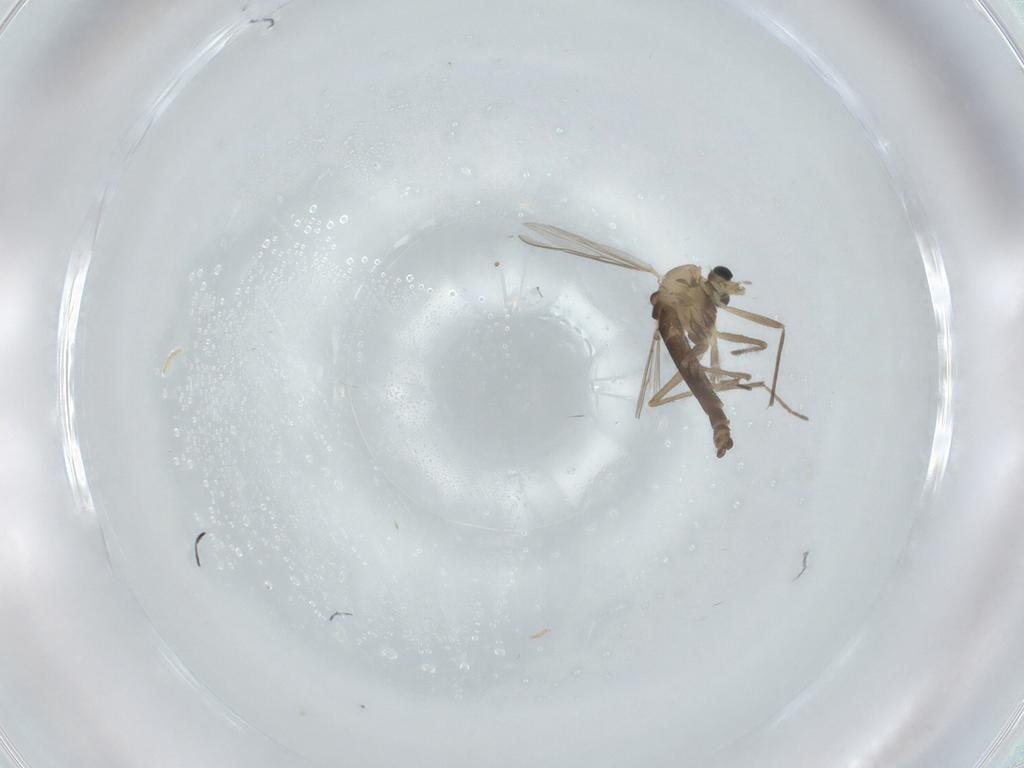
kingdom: Animalia
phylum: Arthropoda
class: Insecta
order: Diptera
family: Chironomidae
